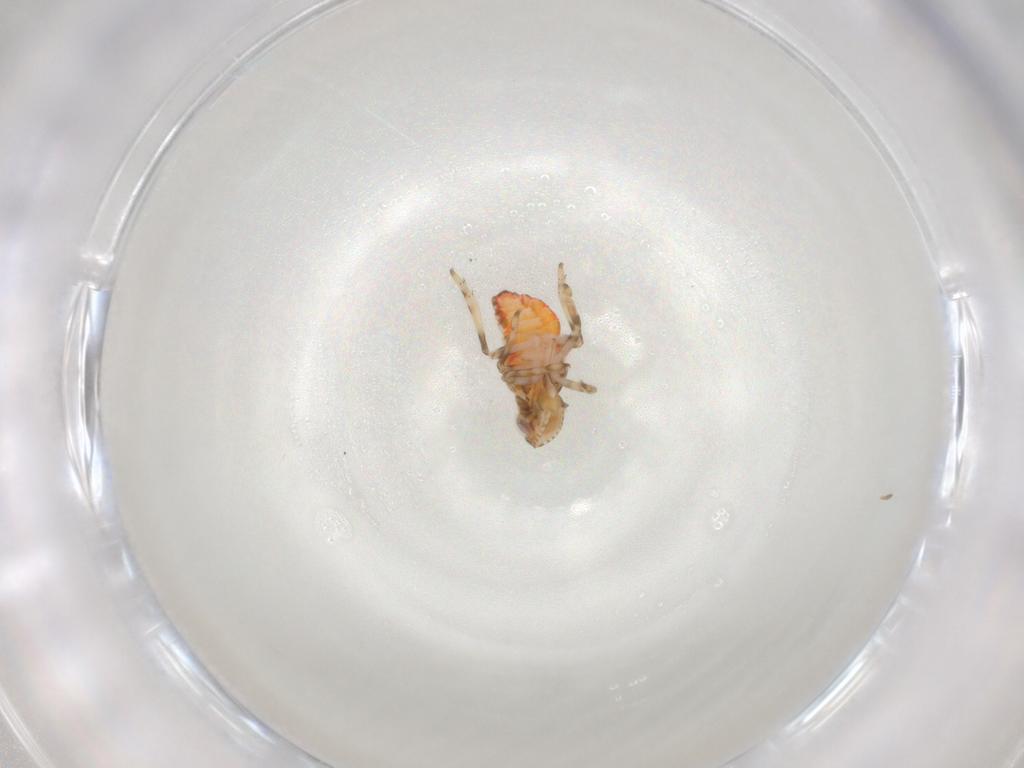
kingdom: Animalia
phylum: Arthropoda
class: Insecta
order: Hemiptera
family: Tropiduchidae
